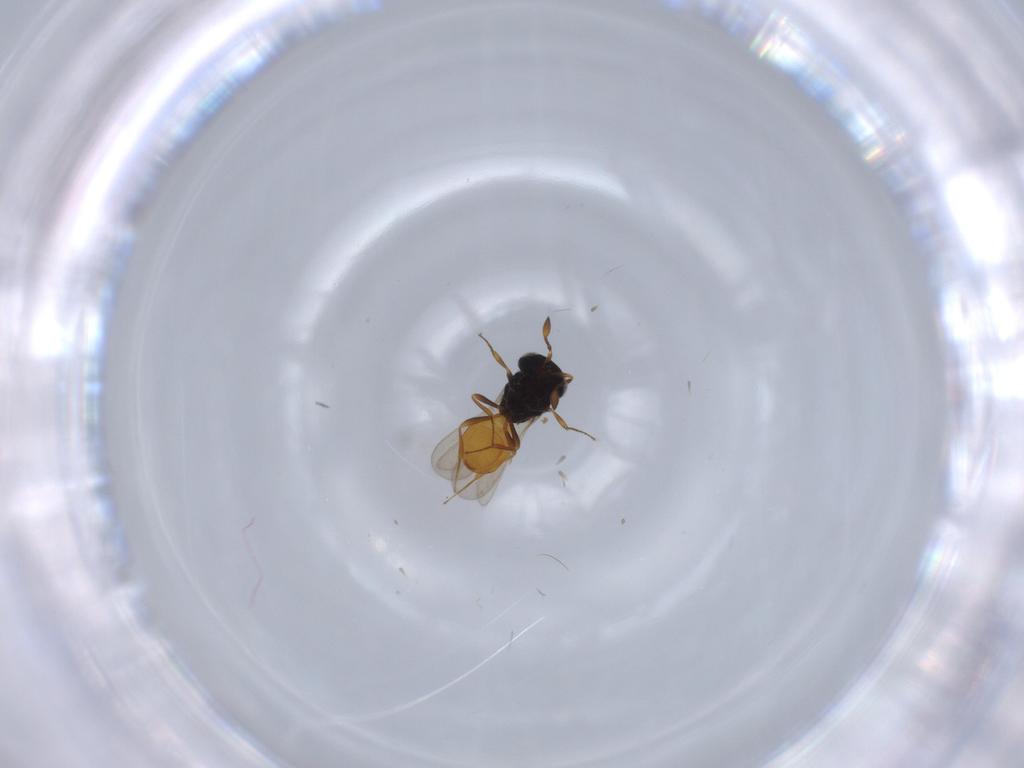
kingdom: Animalia
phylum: Arthropoda
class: Insecta
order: Hymenoptera
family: Scelionidae
